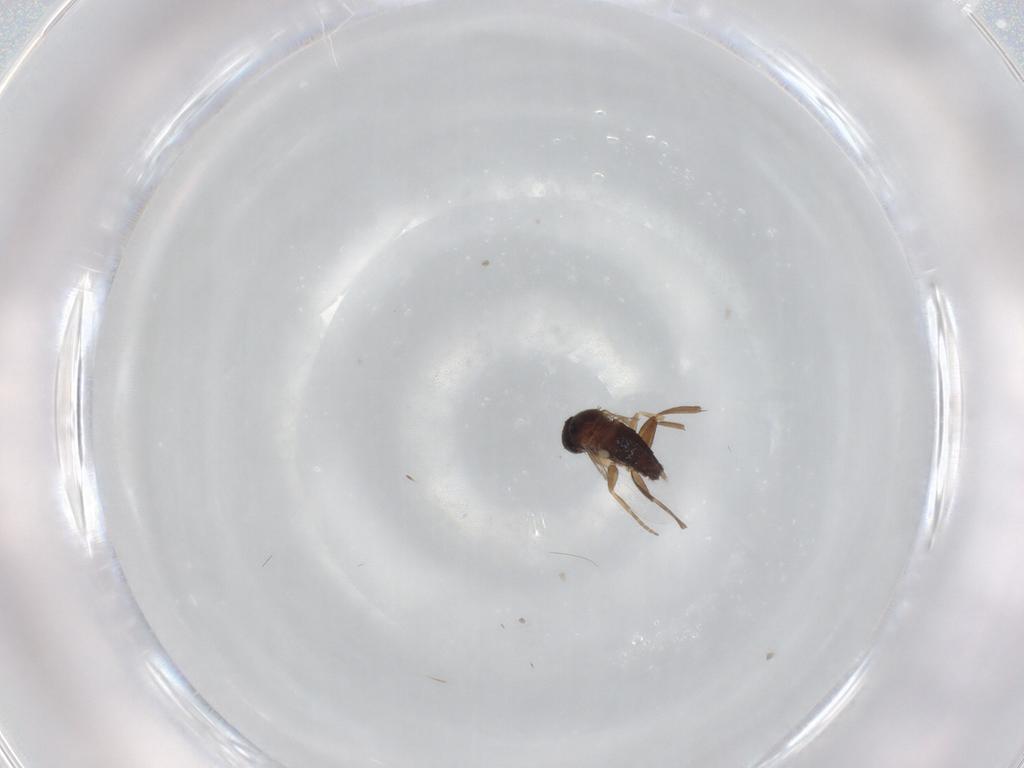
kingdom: Animalia
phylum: Arthropoda
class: Insecta
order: Diptera
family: Phoridae
